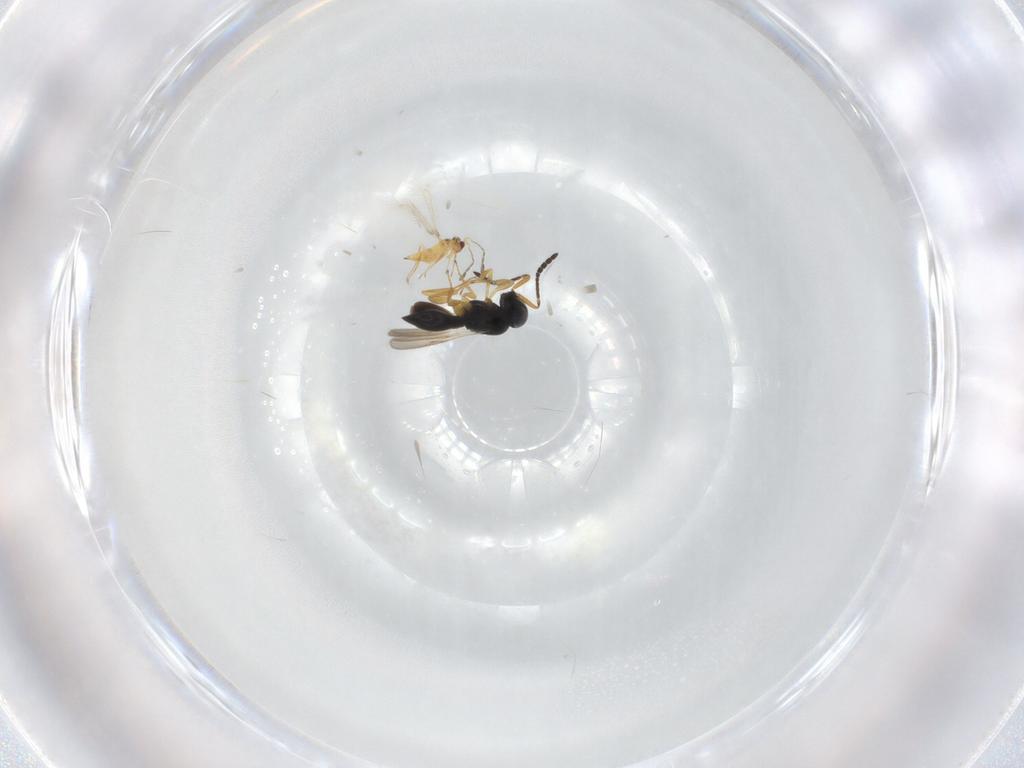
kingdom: Animalia
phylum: Arthropoda
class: Insecta
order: Hymenoptera
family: Scelionidae
